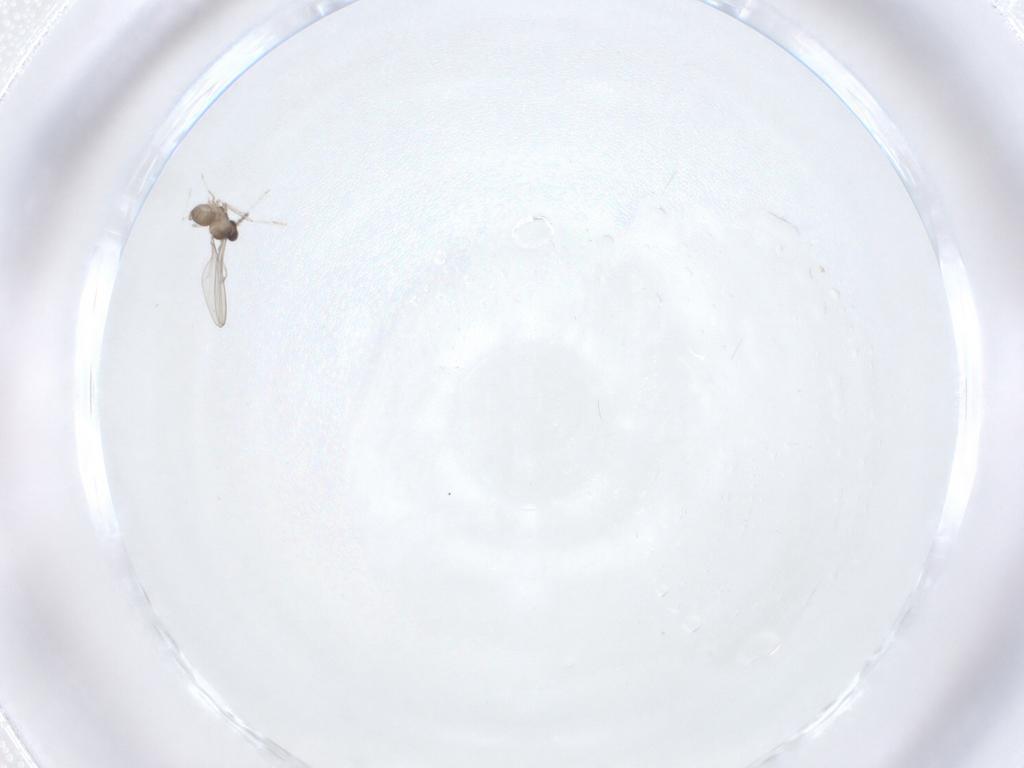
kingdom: Animalia
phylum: Arthropoda
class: Insecta
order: Diptera
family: Cecidomyiidae
